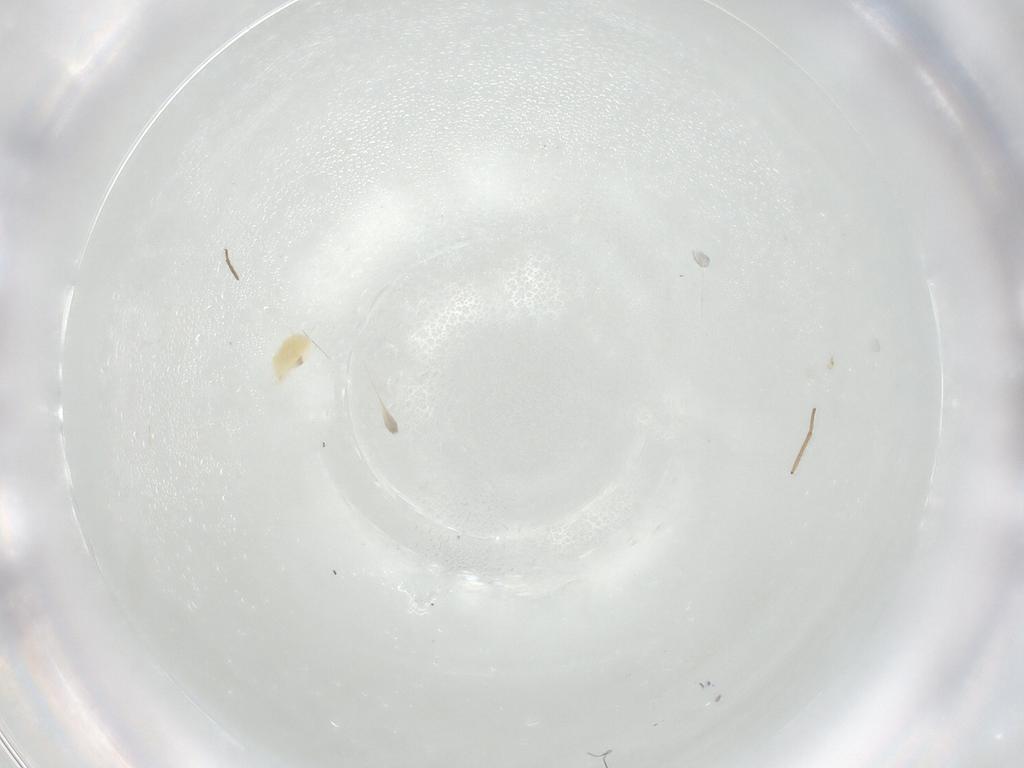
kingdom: Animalia
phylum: Arthropoda
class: Insecta
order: Diptera
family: Chironomidae
